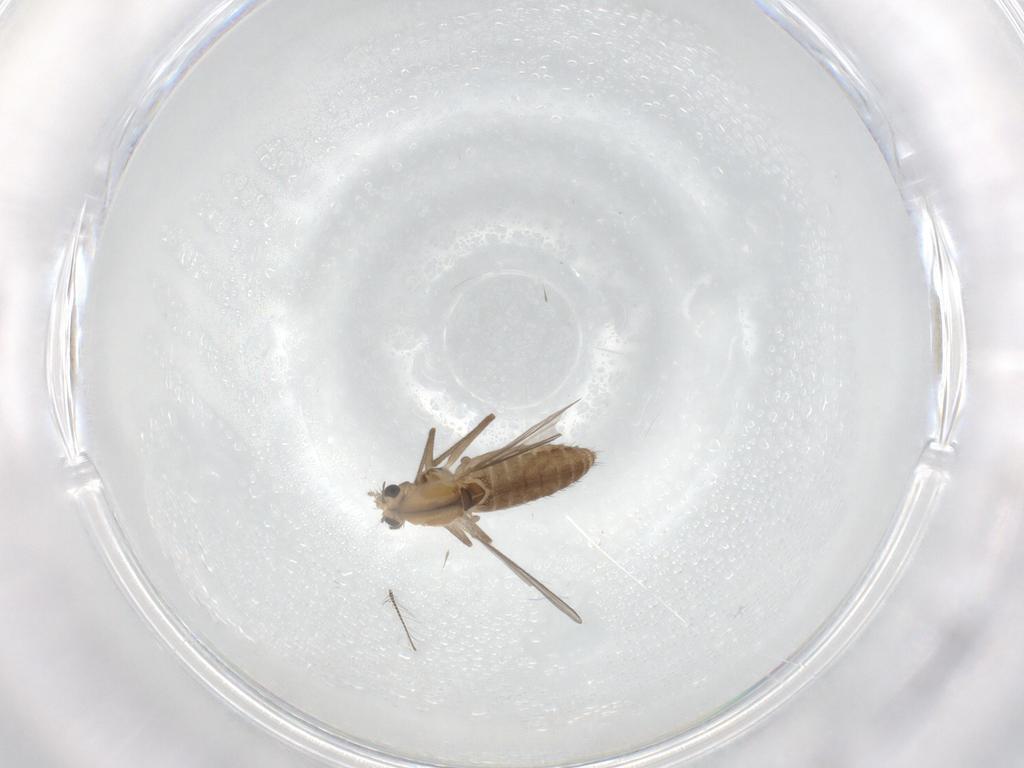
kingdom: Animalia
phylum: Arthropoda
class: Insecta
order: Diptera
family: Chironomidae
